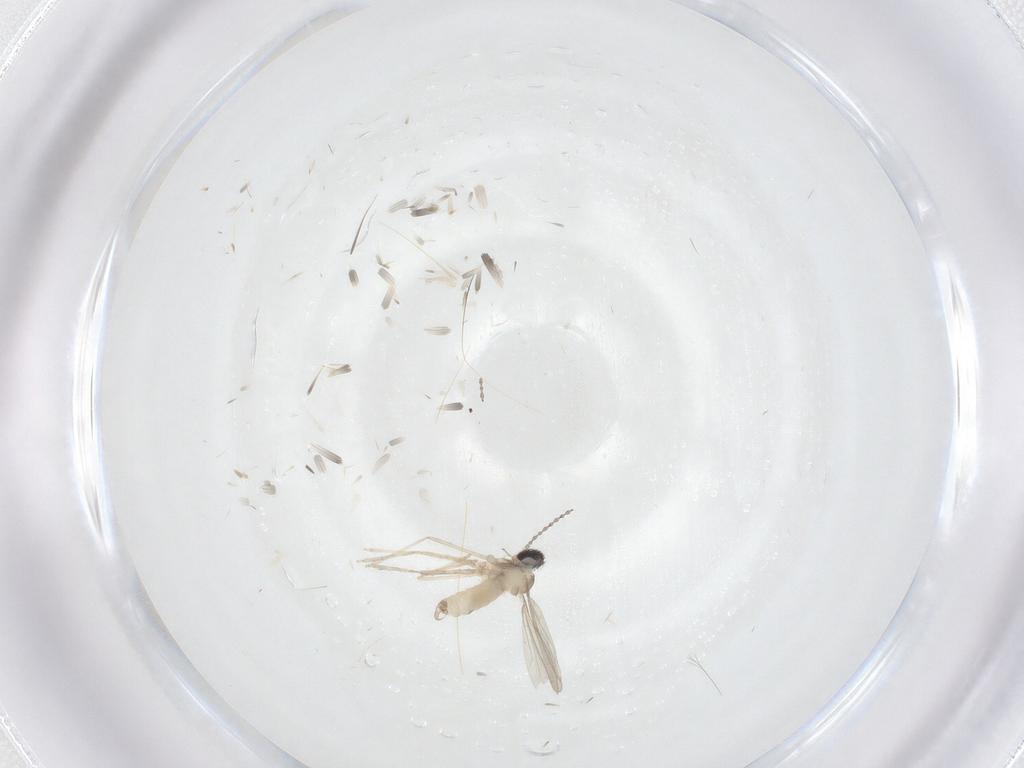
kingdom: Animalia
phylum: Arthropoda
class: Insecta
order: Diptera
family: Cecidomyiidae
